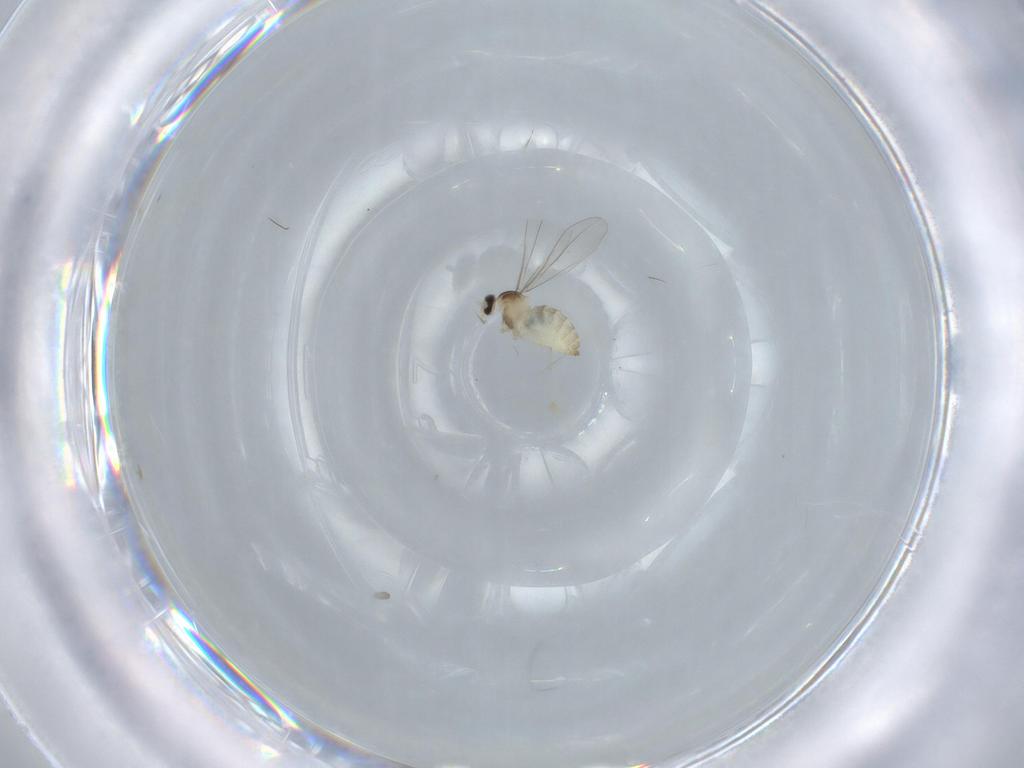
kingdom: Animalia
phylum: Arthropoda
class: Insecta
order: Diptera
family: Cecidomyiidae
